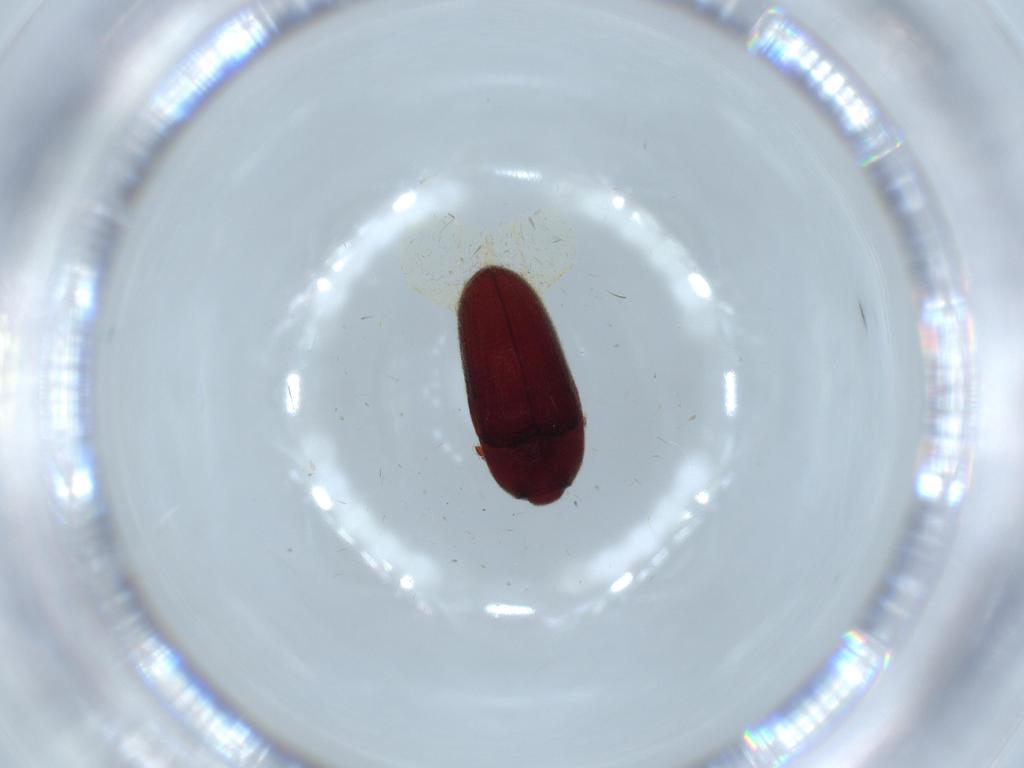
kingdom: Animalia
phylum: Arthropoda
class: Insecta
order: Coleoptera
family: Throscidae
